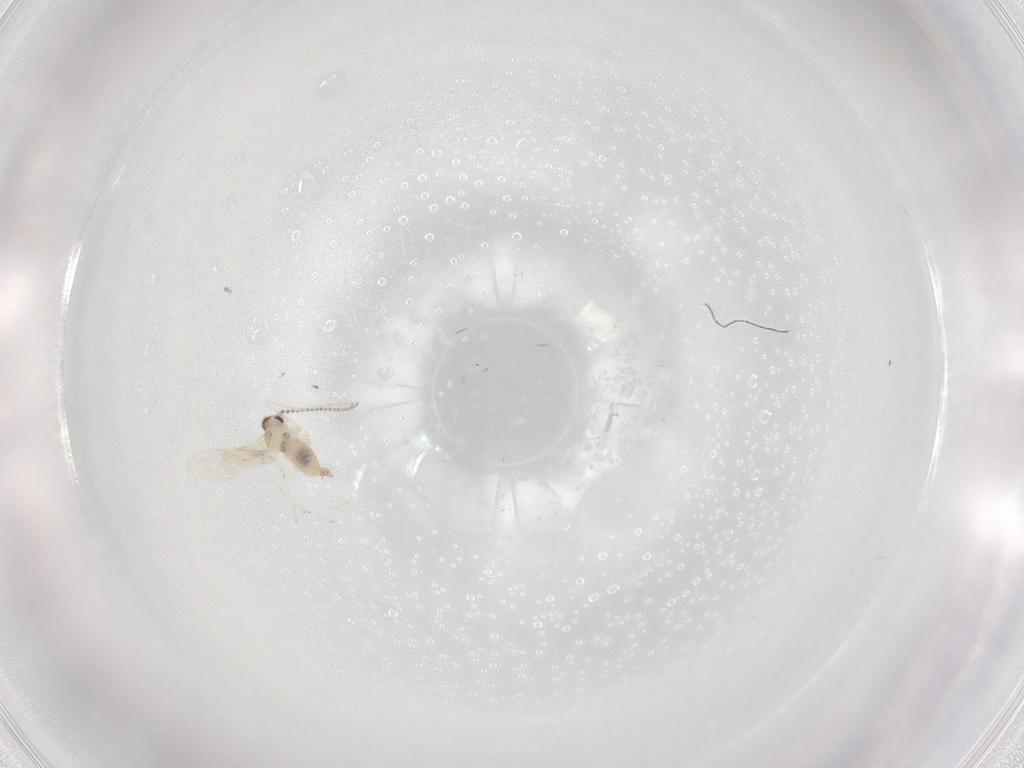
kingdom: Animalia
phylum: Arthropoda
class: Insecta
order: Diptera
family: Cecidomyiidae
